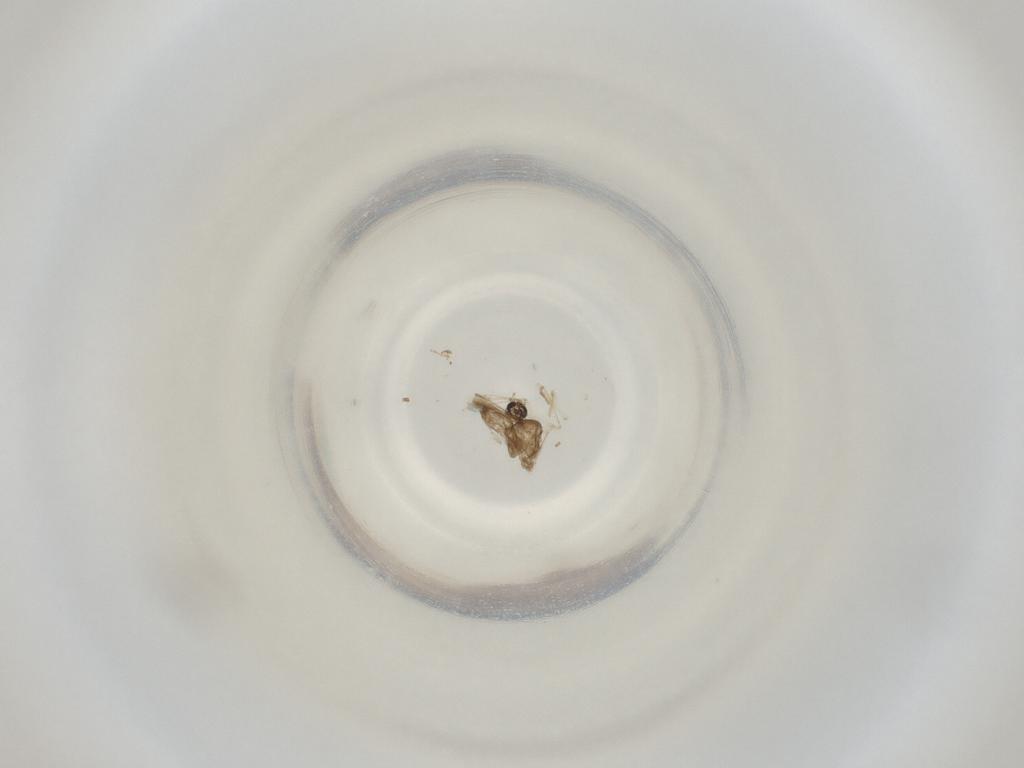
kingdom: Animalia
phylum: Arthropoda
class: Insecta
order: Diptera
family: Cecidomyiidae
